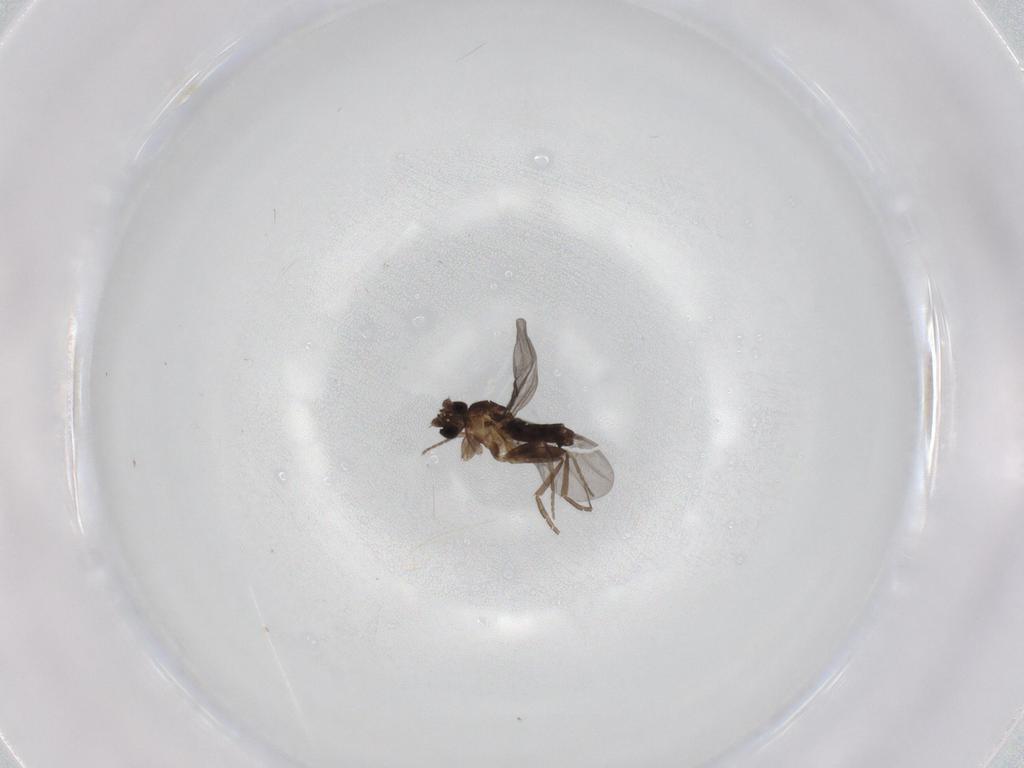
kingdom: Animalia
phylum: Arthropoda
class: Insecta
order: Diptera
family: Phoridae
